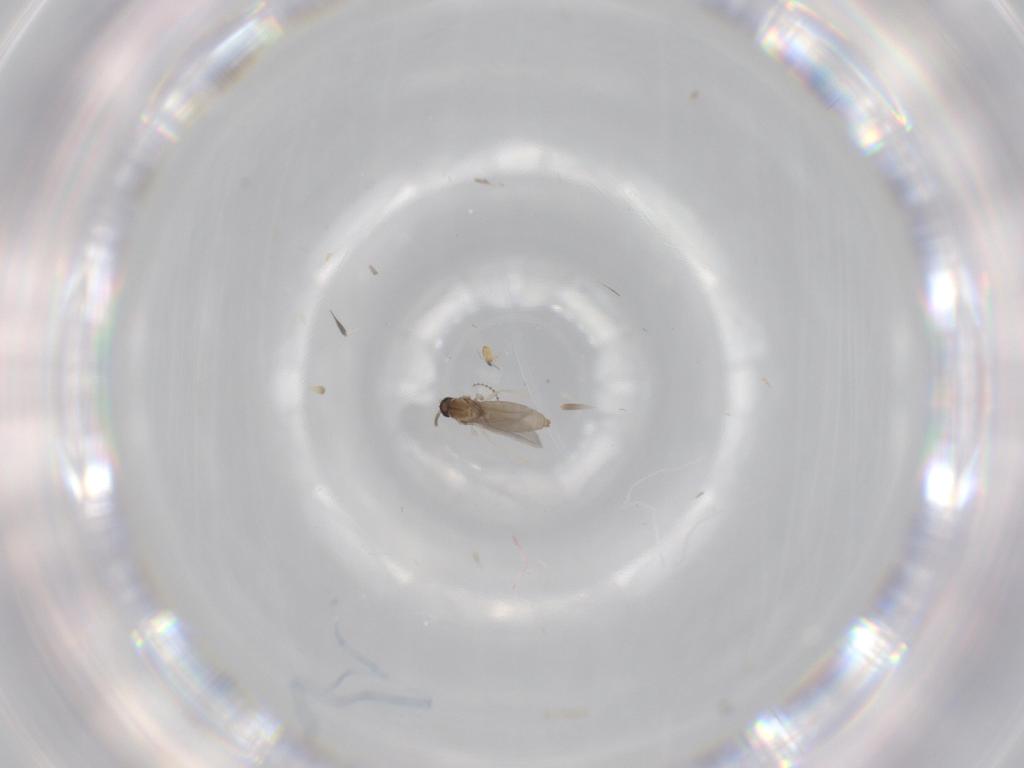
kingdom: Animalia
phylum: Arthropoda
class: Insecta
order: Diptera
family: Cecidomyiidae
